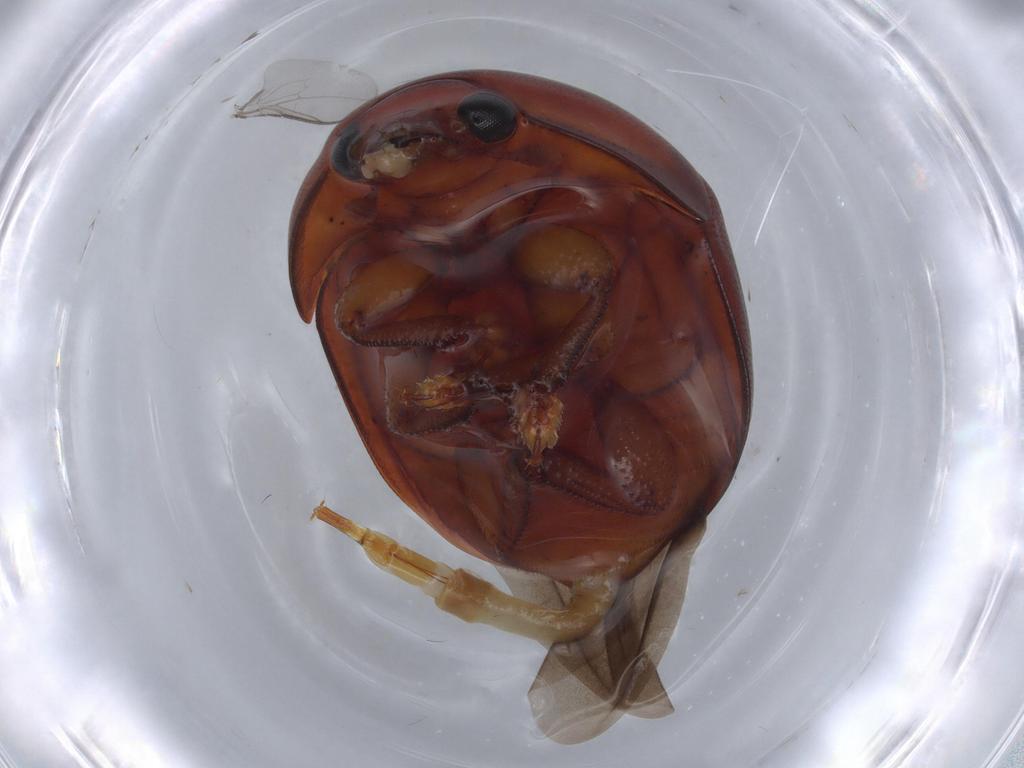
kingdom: Animalia
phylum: Arthropoda
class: Insecta
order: Coleoptera
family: Nitidulidae
